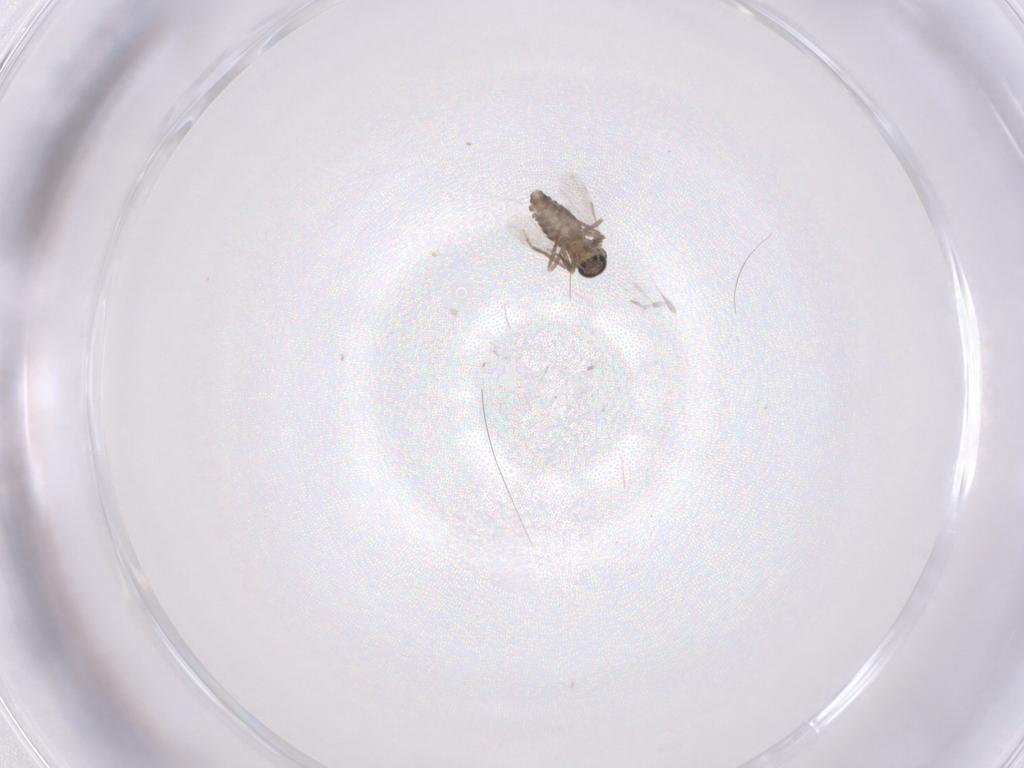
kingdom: Animalia
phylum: Arthropoda
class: Insecta
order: Diptera
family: Ceratopogonidae
